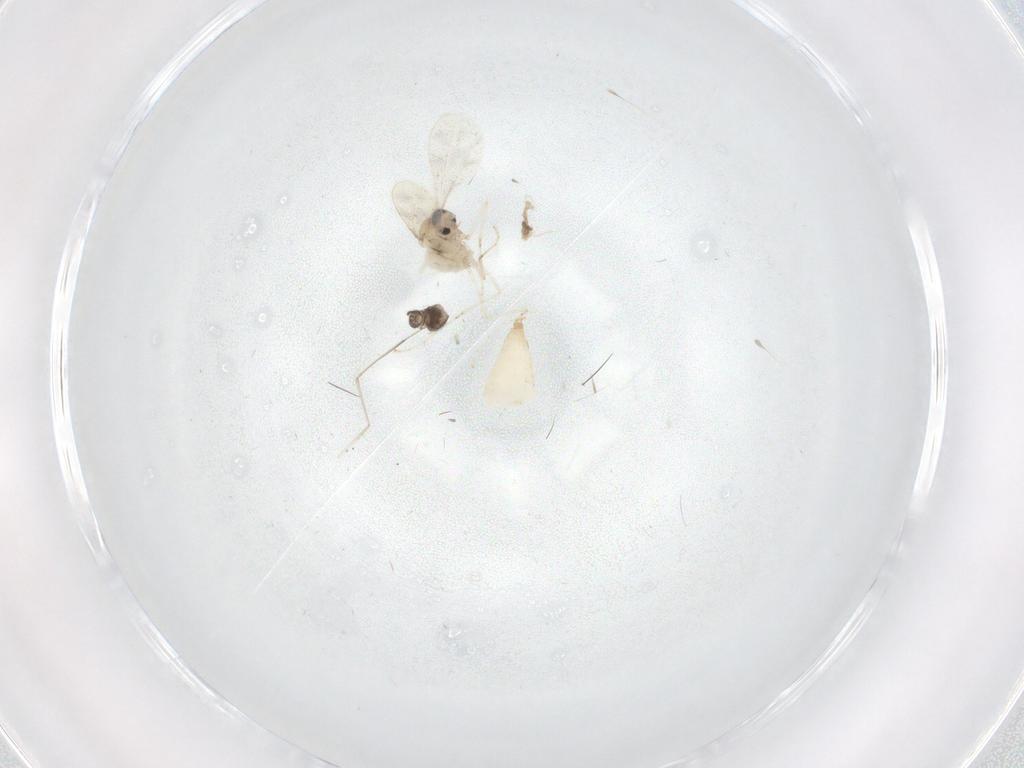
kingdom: Animalia
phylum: Arthropoda
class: Insecta
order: Diptera
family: Cecidomyiidae
